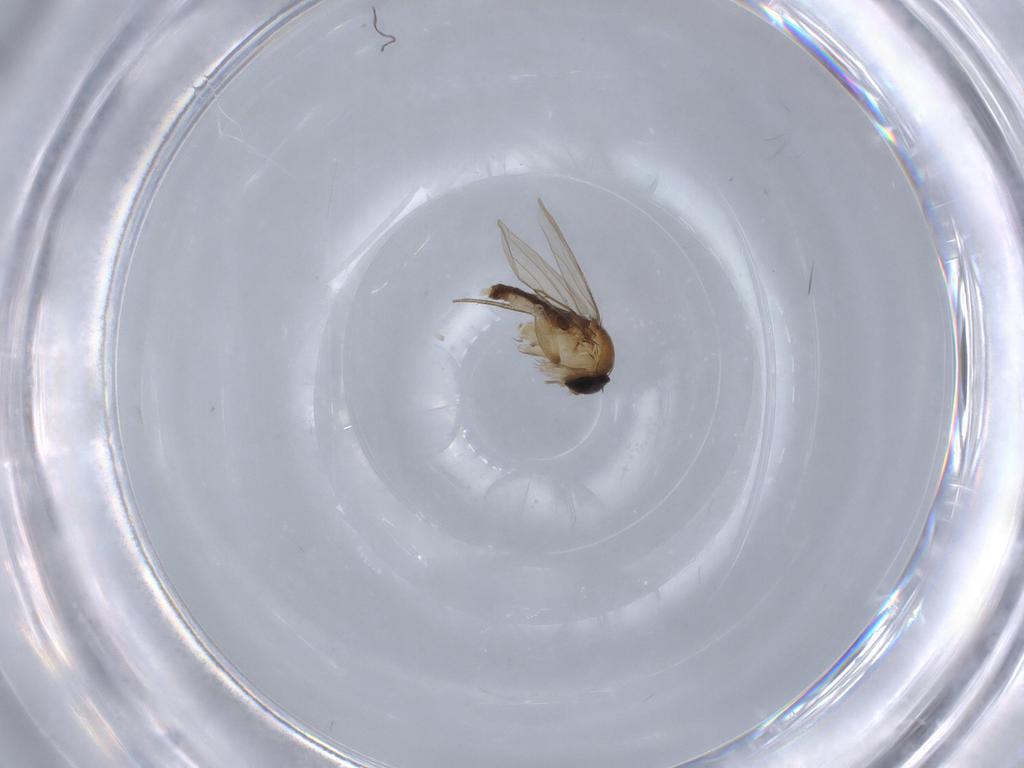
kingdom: Animalia
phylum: Arthropoda
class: Insecta
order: Diptera
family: Phoridae
